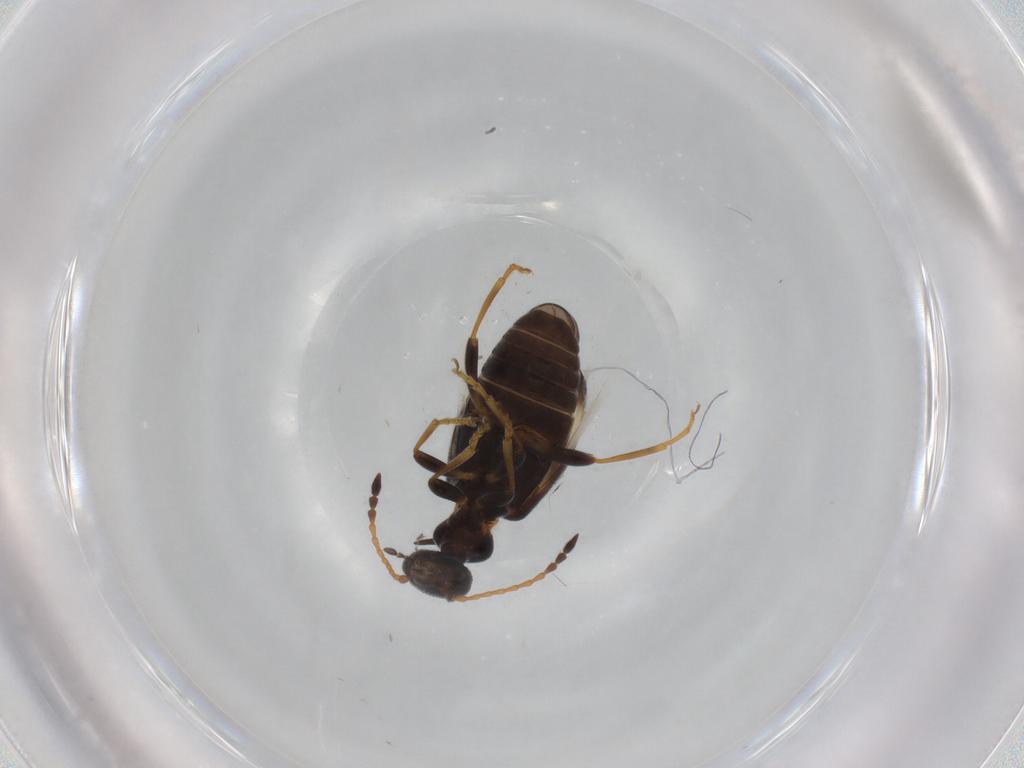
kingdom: Animalia
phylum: Arthropoda
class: Insecta
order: Coleoptera
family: Anthicidae
